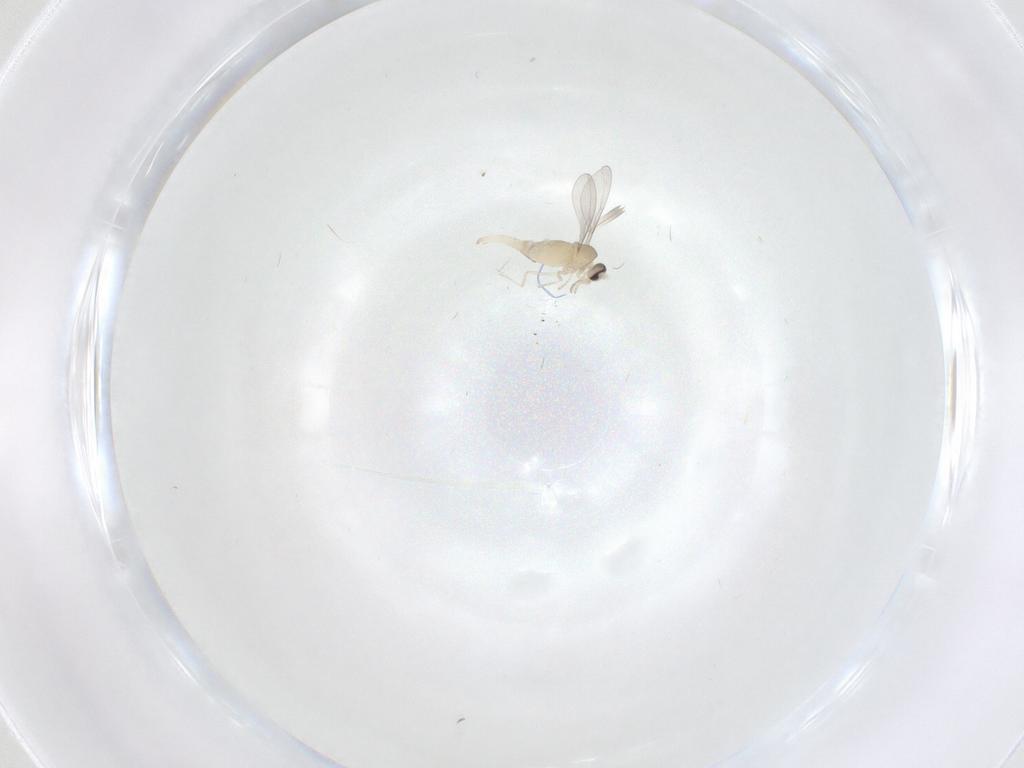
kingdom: Animalia
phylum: Arthropoda
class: Insecta
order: Diptera
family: Cecidomyiidae
